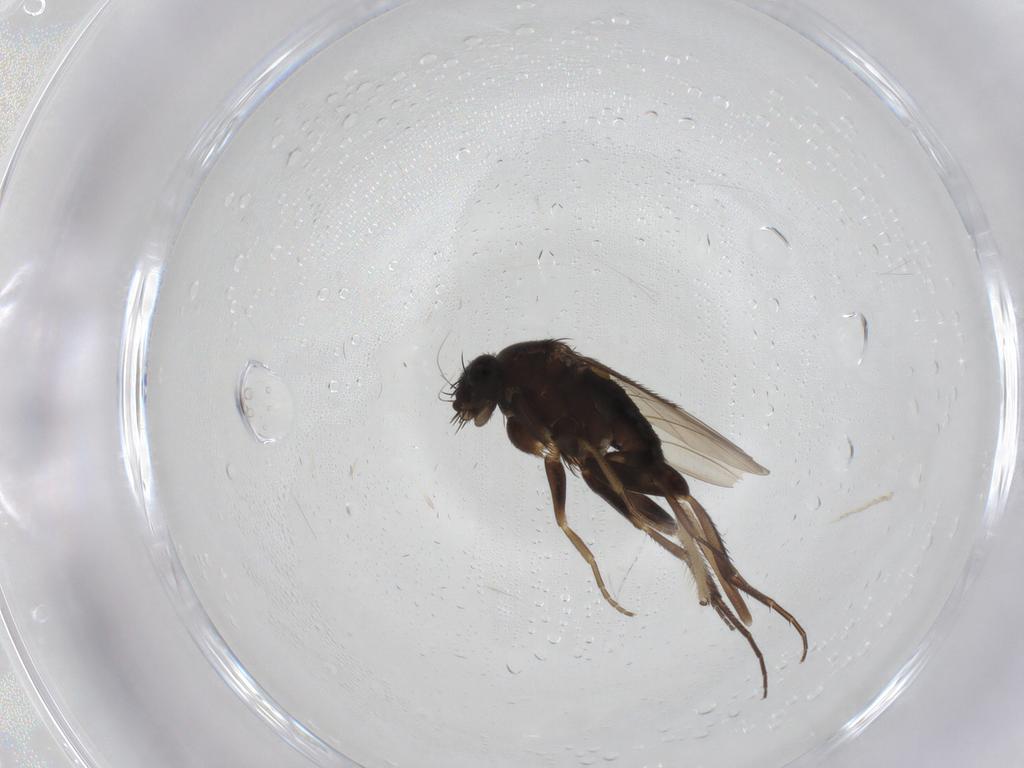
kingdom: Animalia
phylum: Arthropoda
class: Insecta
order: Diptera
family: Phoridae
